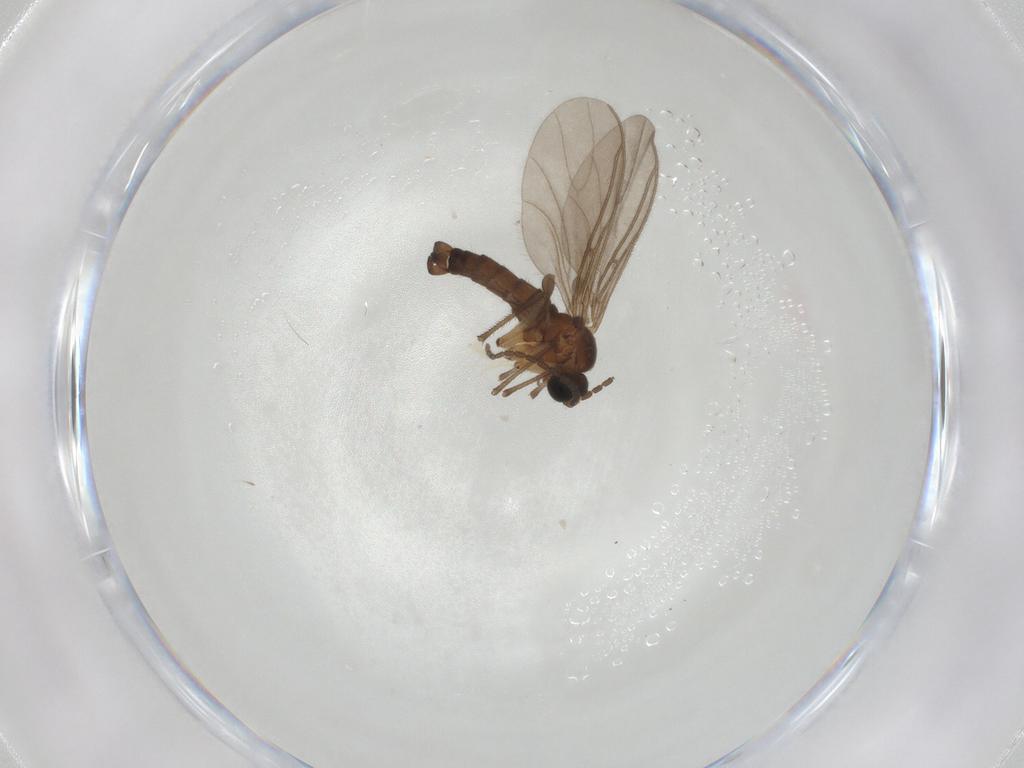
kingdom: Animalia
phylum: Arthropoda
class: Insecta
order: Diptera
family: Sciaridae
